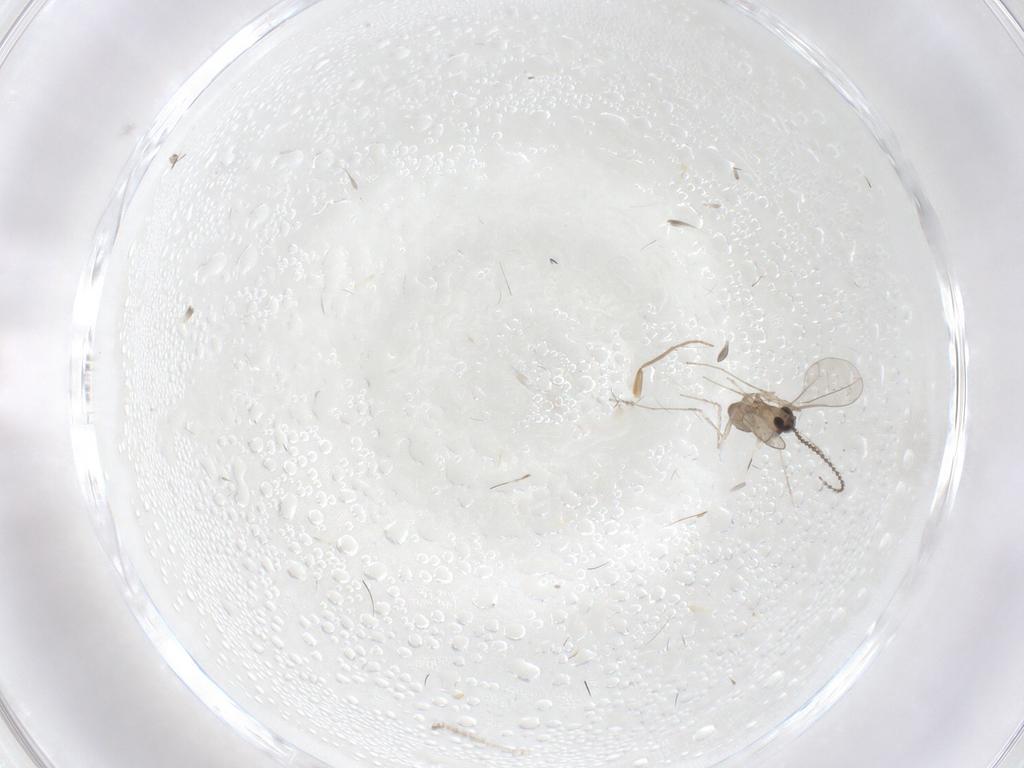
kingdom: Animalia
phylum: Arthropoda
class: Insecta
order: Diptera
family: Cecidomyiidae
